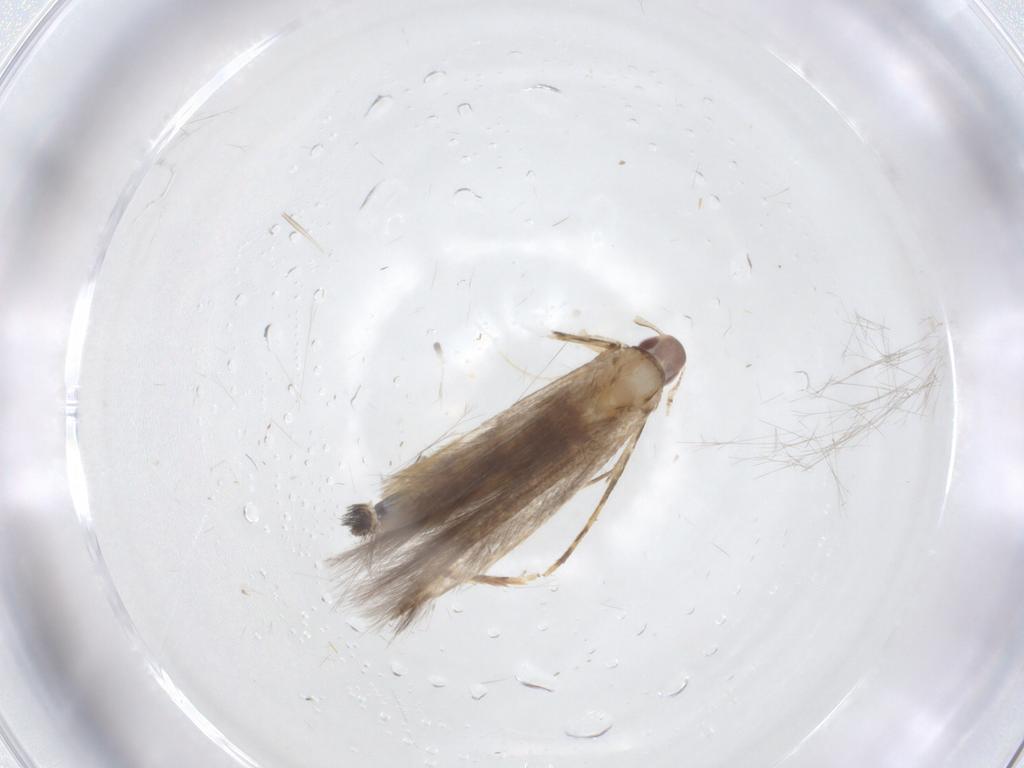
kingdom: Animalia
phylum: Arthropoda
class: Insecta
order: Lepidoptera
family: Cosmopterigidae
